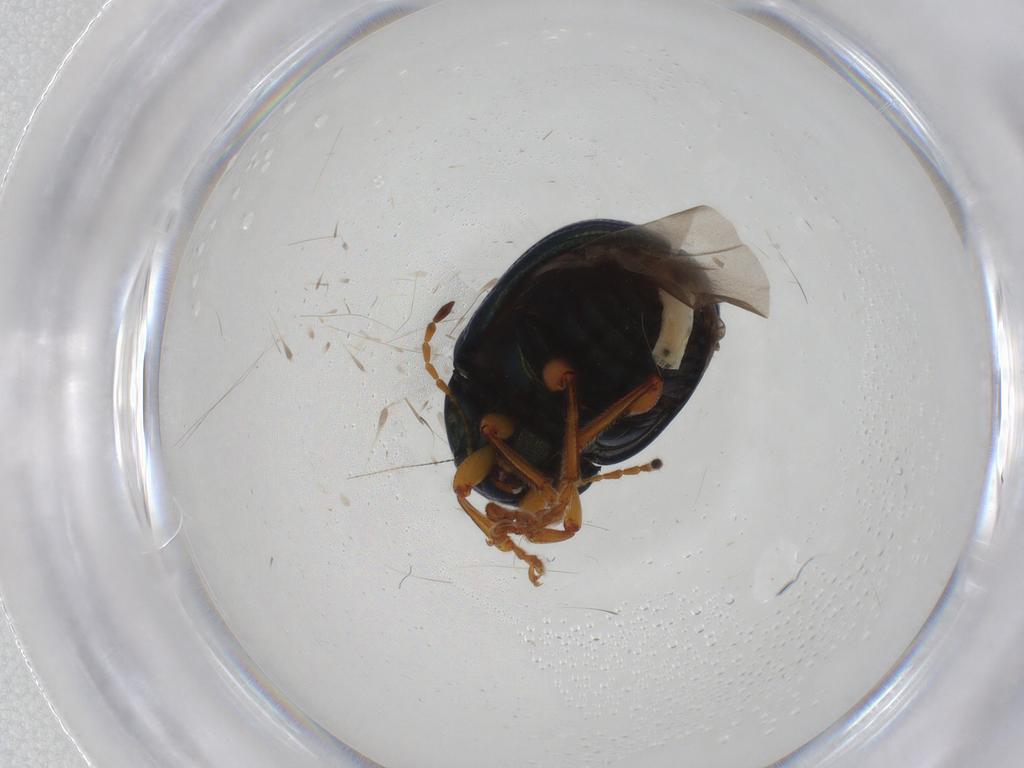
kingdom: Animalia
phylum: Arthropoda
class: Insecta
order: Coleoptera
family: Chrysomelidae
